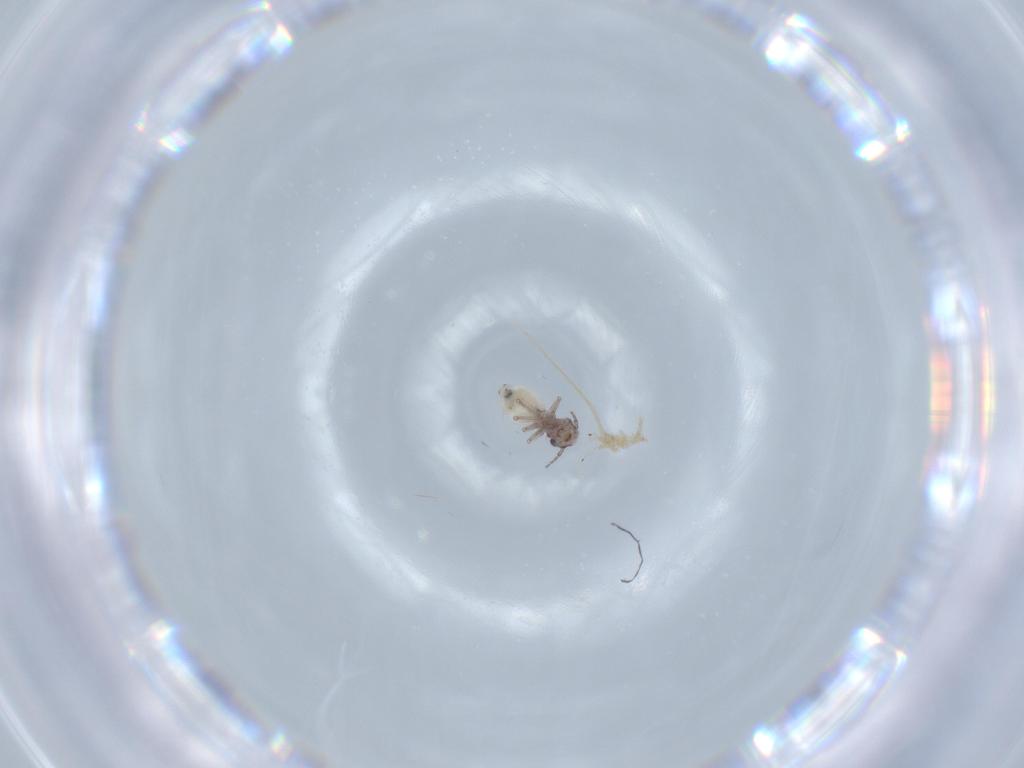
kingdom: Animalia
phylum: Arthropoda
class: Insecta
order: Psocodea
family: Lepidopsocidae
